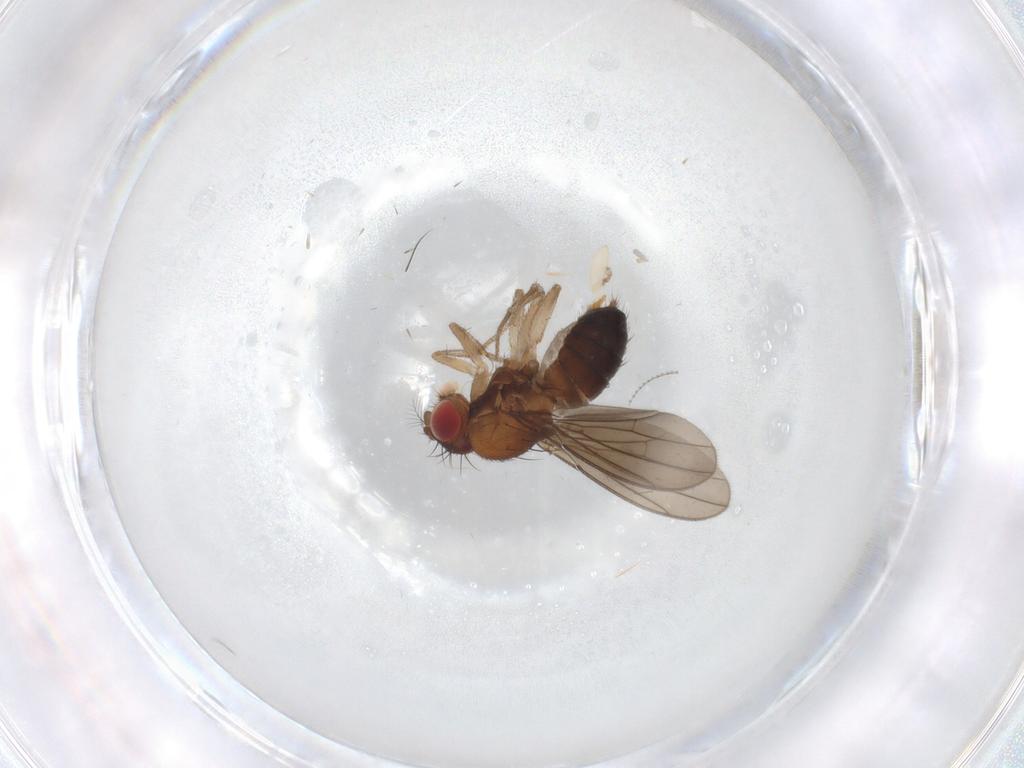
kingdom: Animalia
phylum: Arthropoda
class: Insecta
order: Diptera
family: Drosophilidae
